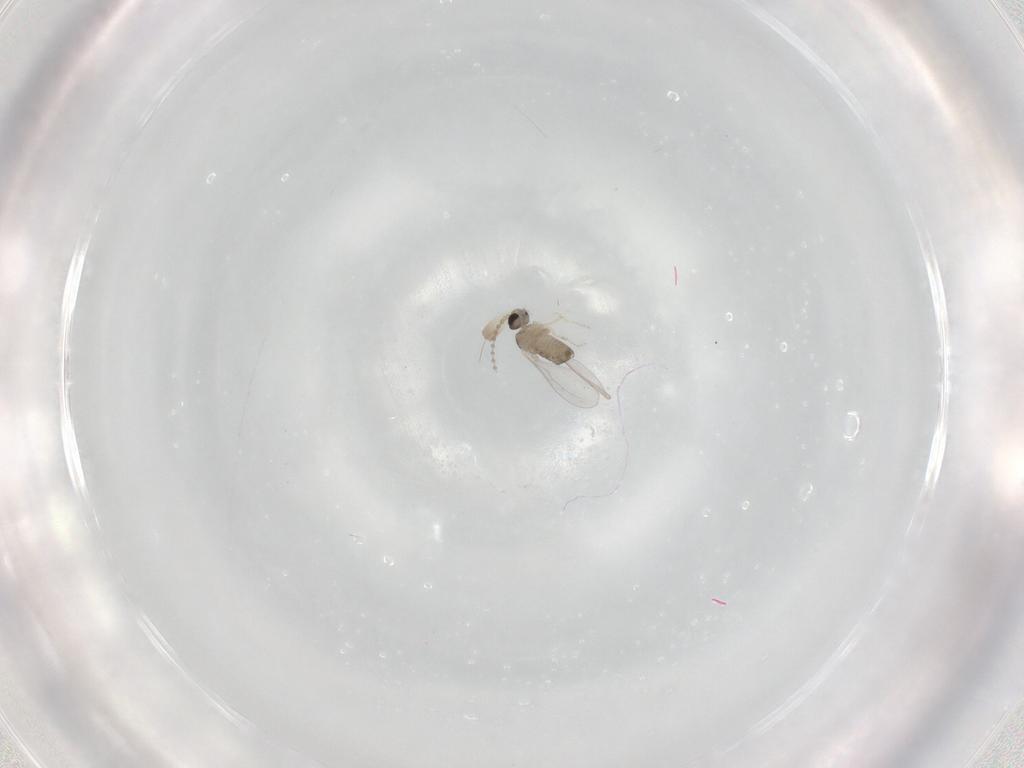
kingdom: Animalia
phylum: Arthropoda
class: Insecta
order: Diptera
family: Chironomidae
